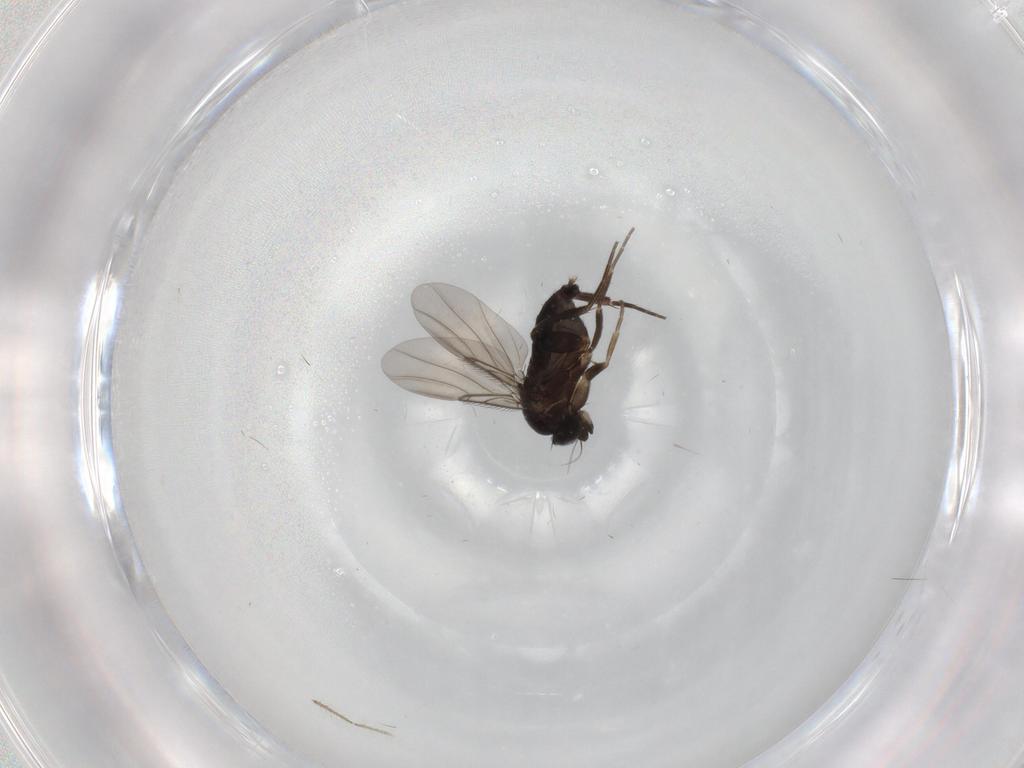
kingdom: Animalia
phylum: Arthropoda
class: Insecta
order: Diptera
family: Phoridae
